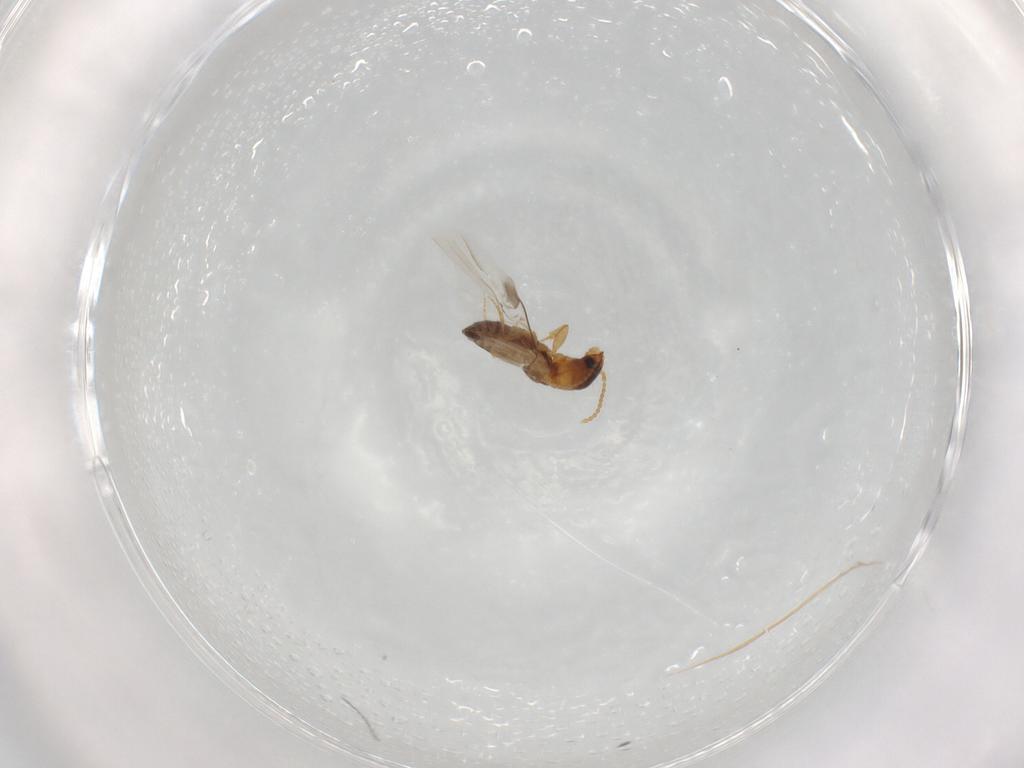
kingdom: Animalia
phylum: Arthropoda
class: Insecta
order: Coleoptera
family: Carabidae
